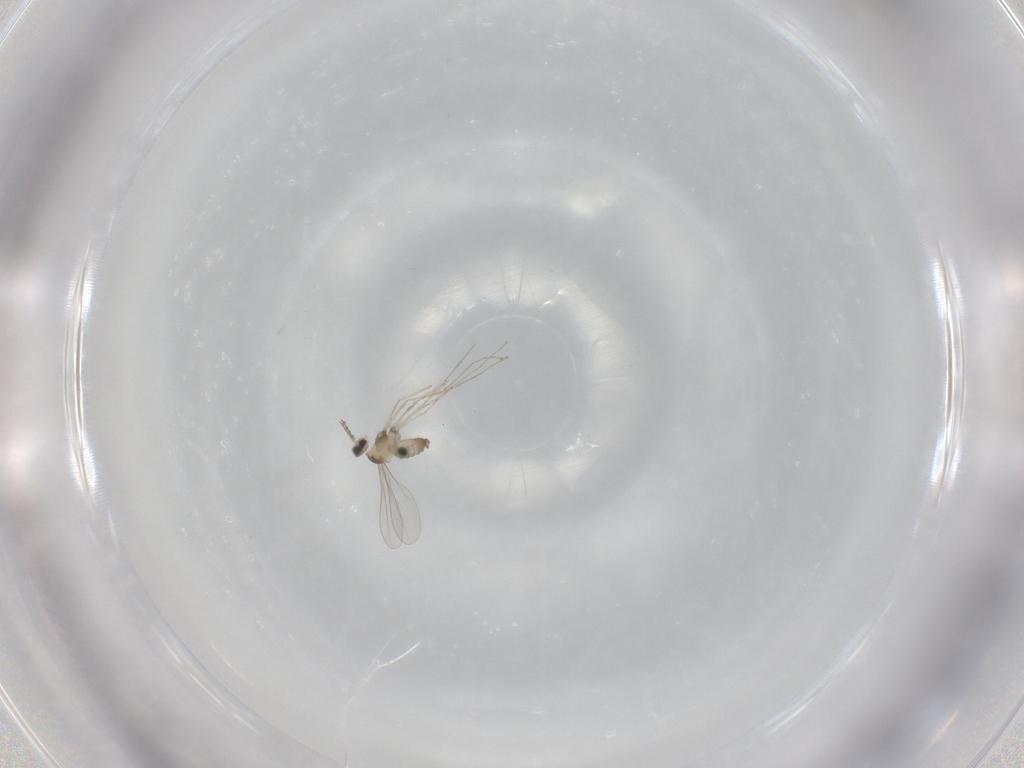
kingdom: Animalia
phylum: Arthropoda
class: Insecta
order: Diptera
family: Cecidomyiidae
